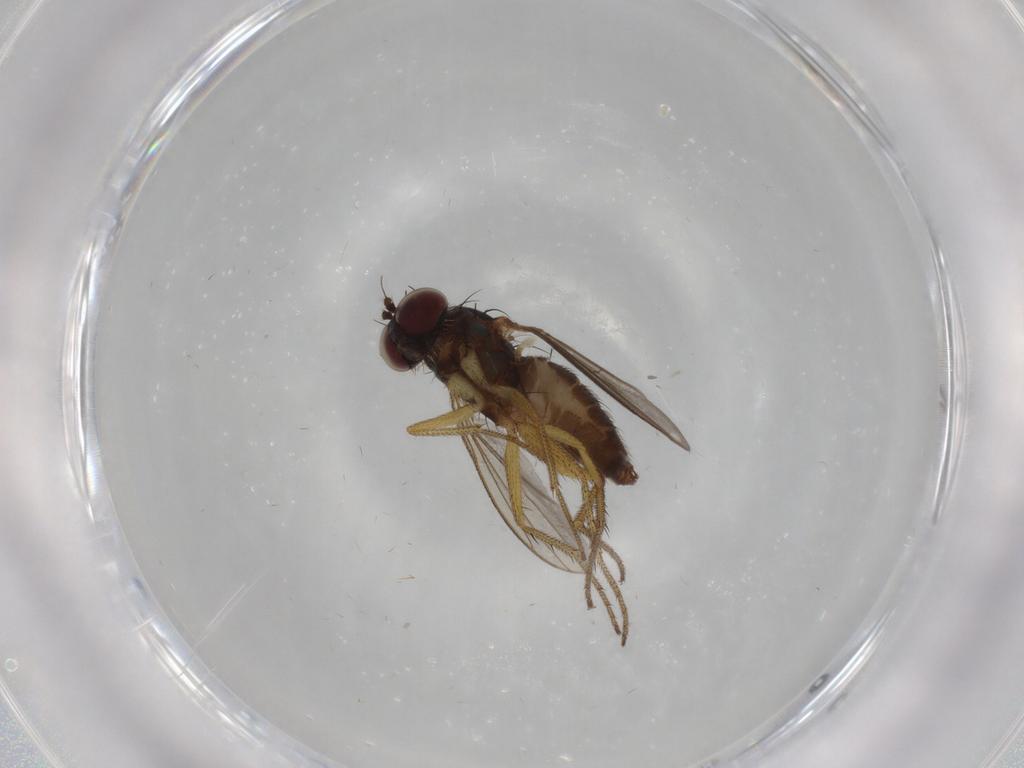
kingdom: Animalia
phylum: Arthropoda
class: Insecta
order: Diptera
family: Dolichopodidae
